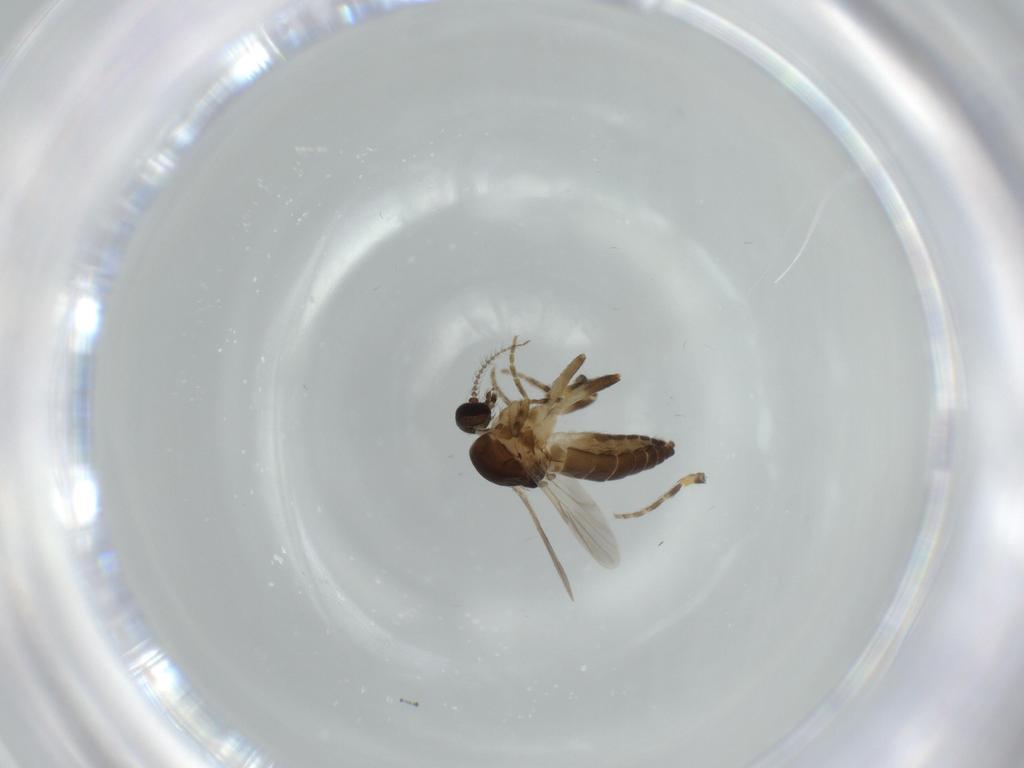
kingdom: Animalia
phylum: Arthropoda
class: Insecta
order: Diptera
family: Ceratopogonidae
